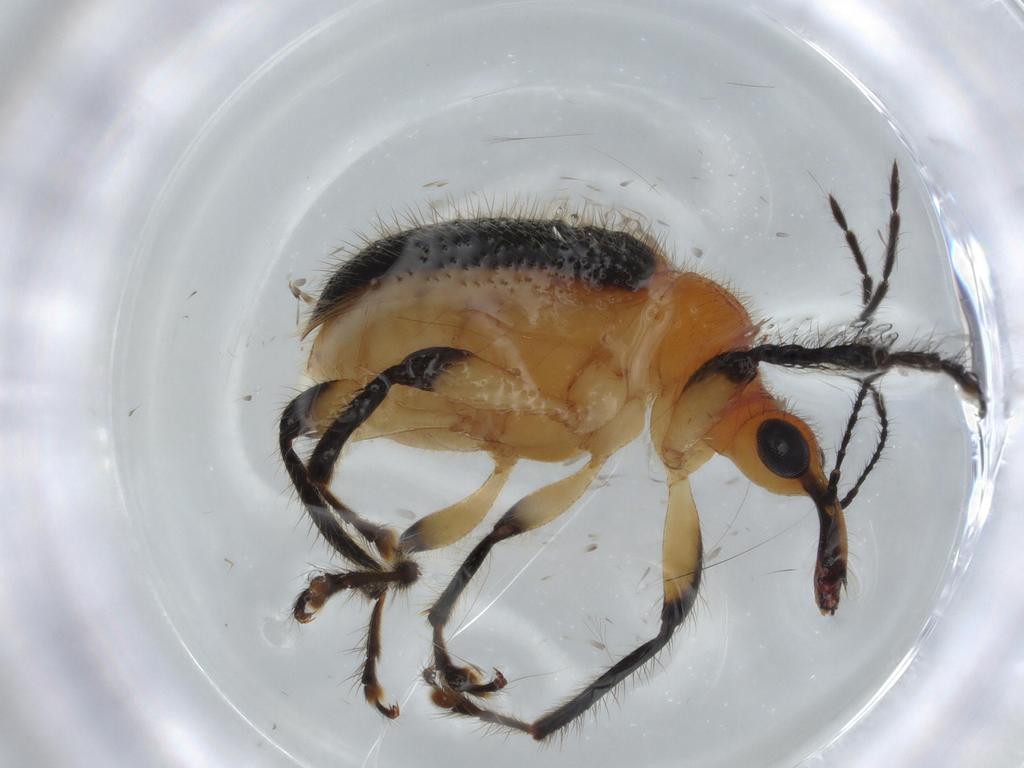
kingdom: Animalia
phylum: Arthropoda
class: Insecta
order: Coleoptera
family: Attelabidae
